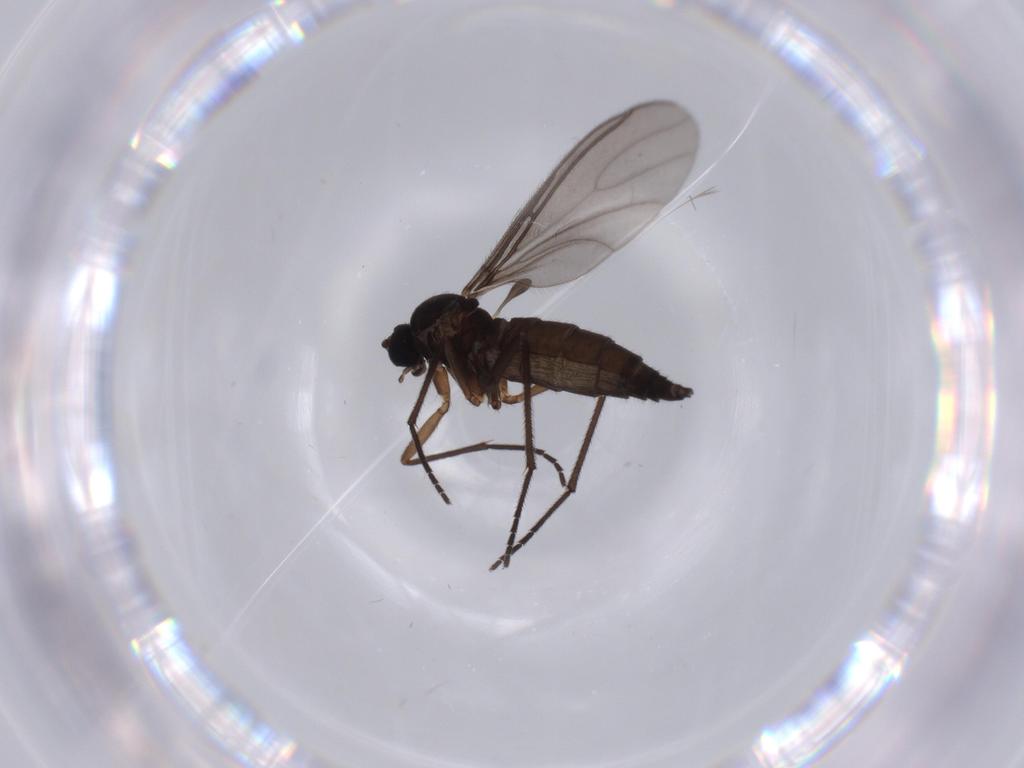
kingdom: Animalia
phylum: Arthropoda
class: Insecta
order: Diptera
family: Sciaridae
